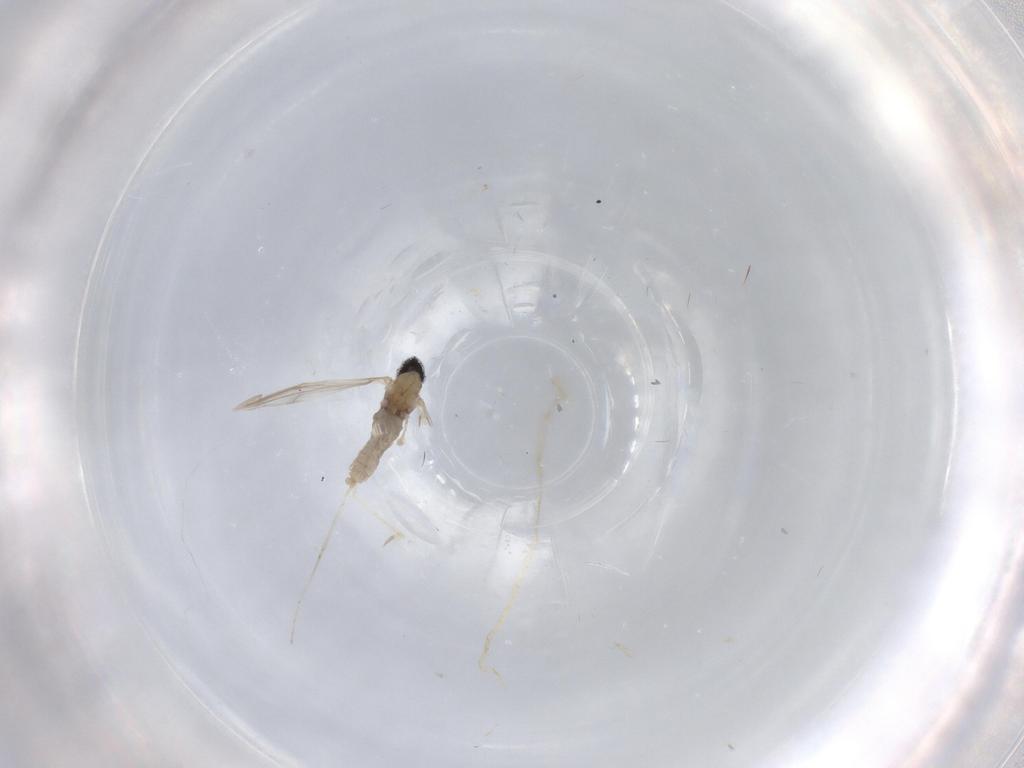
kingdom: Animalia
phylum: Arthropoda
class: Insecta
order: Diptera
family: Cecidomyiidae
